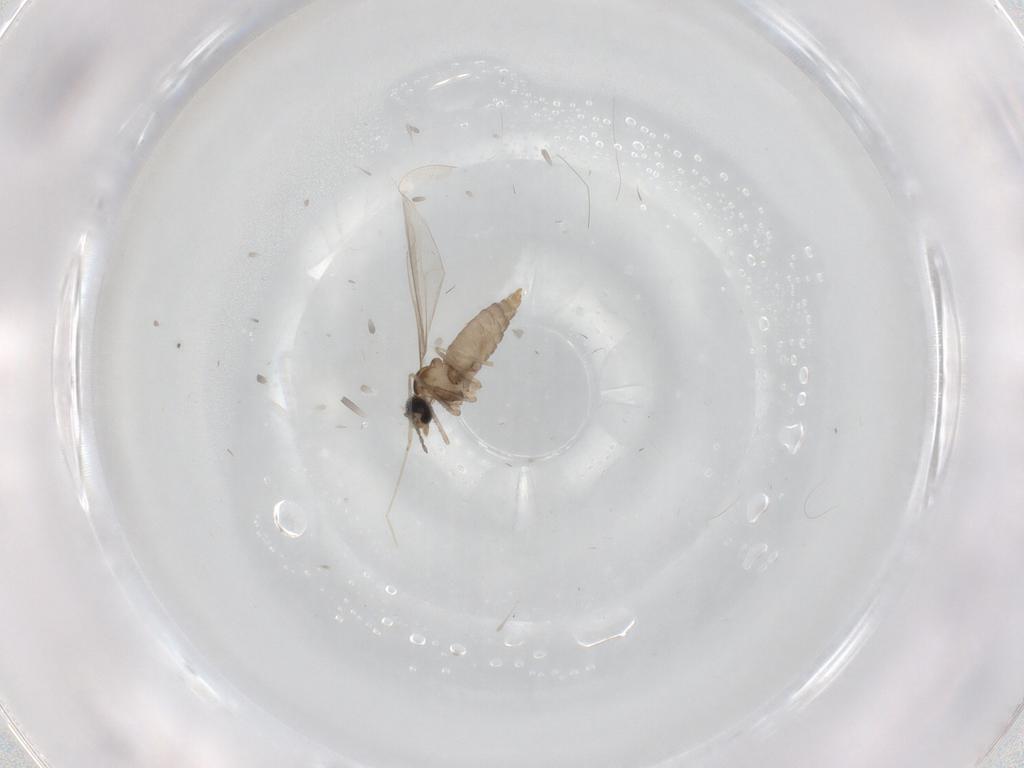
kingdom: Animalia
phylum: Arthropoda
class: Insecta
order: Diptera
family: Cecidomyiidae
